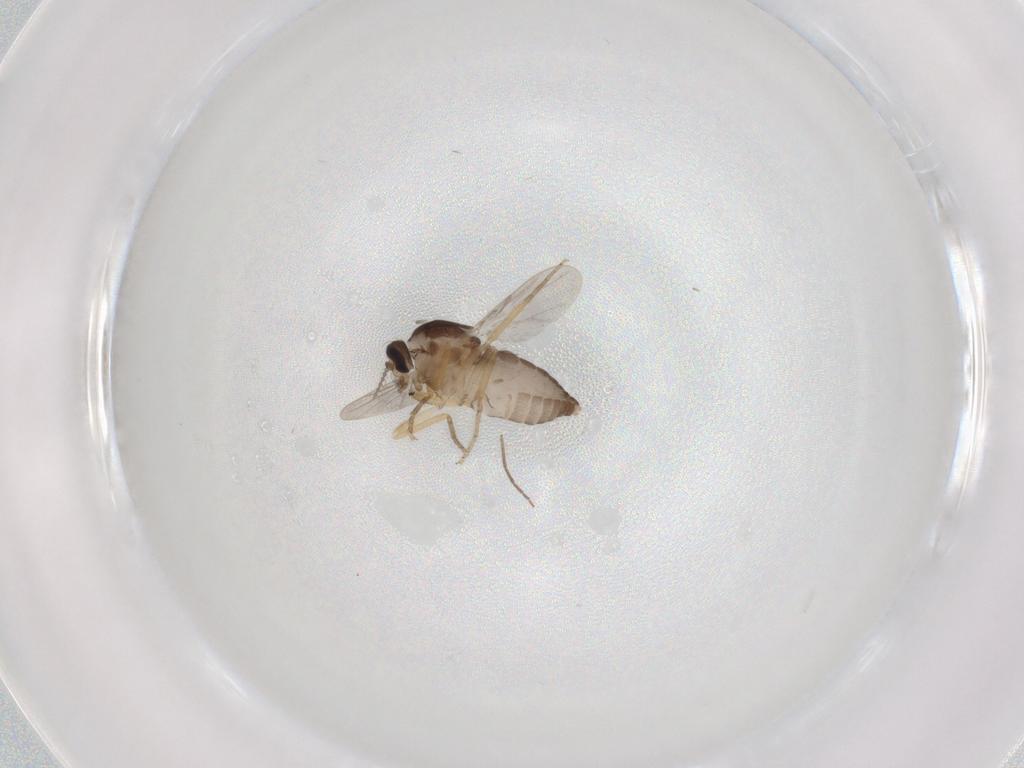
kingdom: Animalia
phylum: Arthropoda
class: Insecta
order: Diptera
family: Ceratopogonidae
